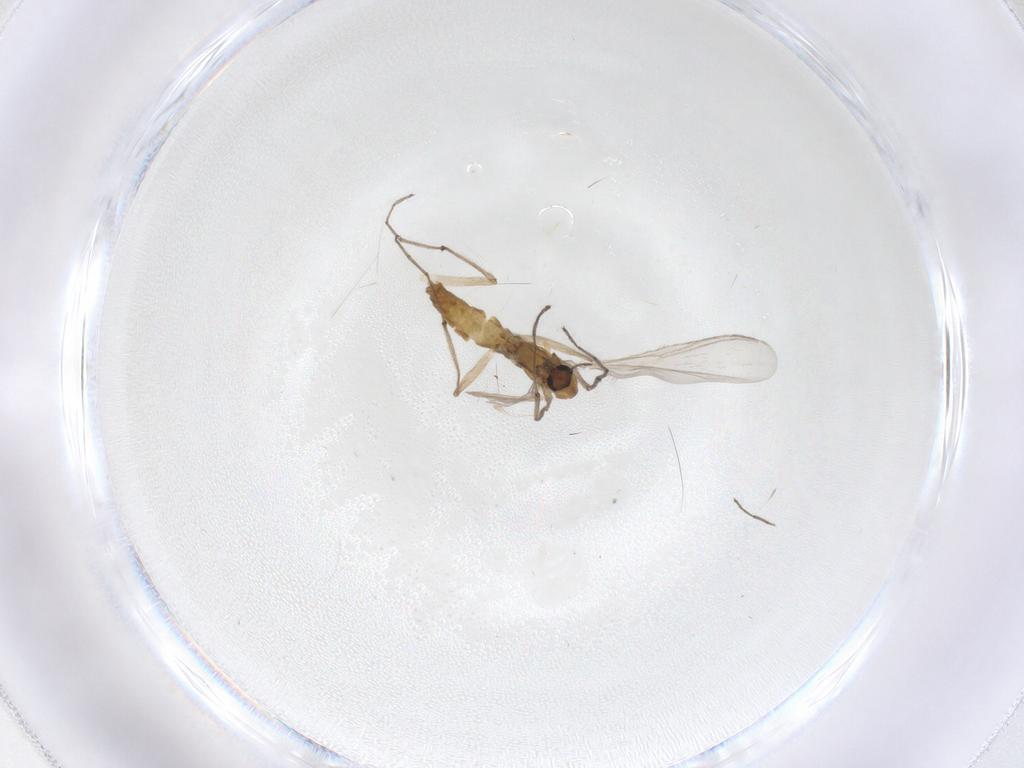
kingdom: Animalia
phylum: Arthropoda
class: Insecta
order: Diptera
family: Chironomidae
